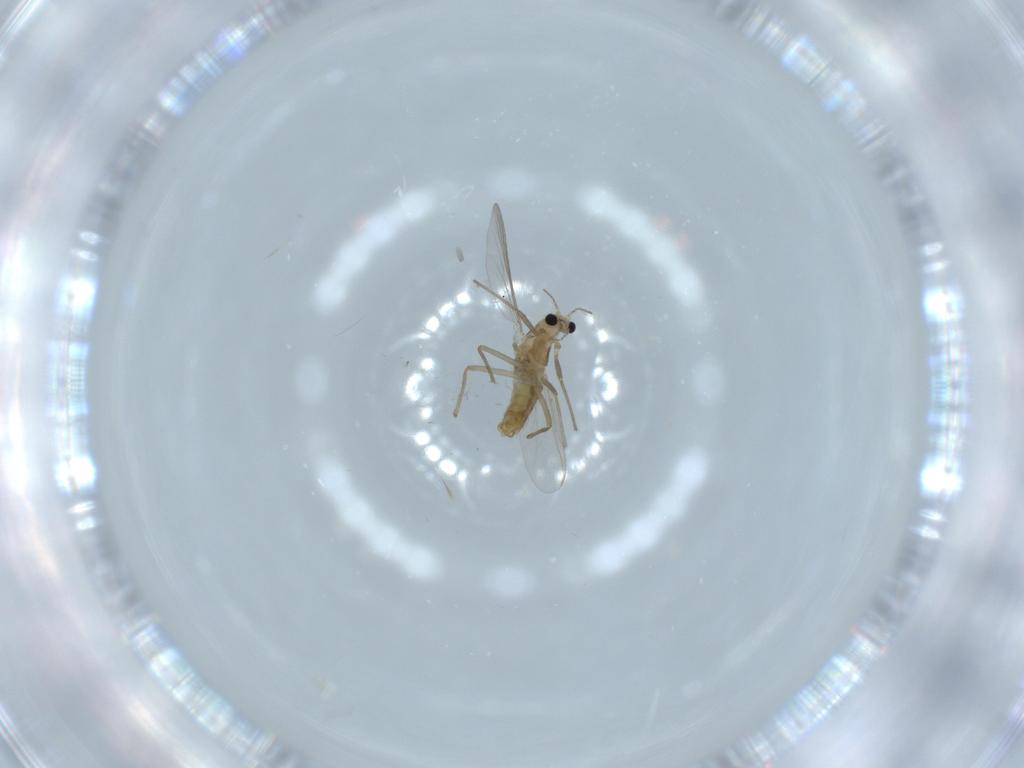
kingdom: Animalia
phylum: Arthropoda
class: Insecta
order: Diptera
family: Chironomidae
